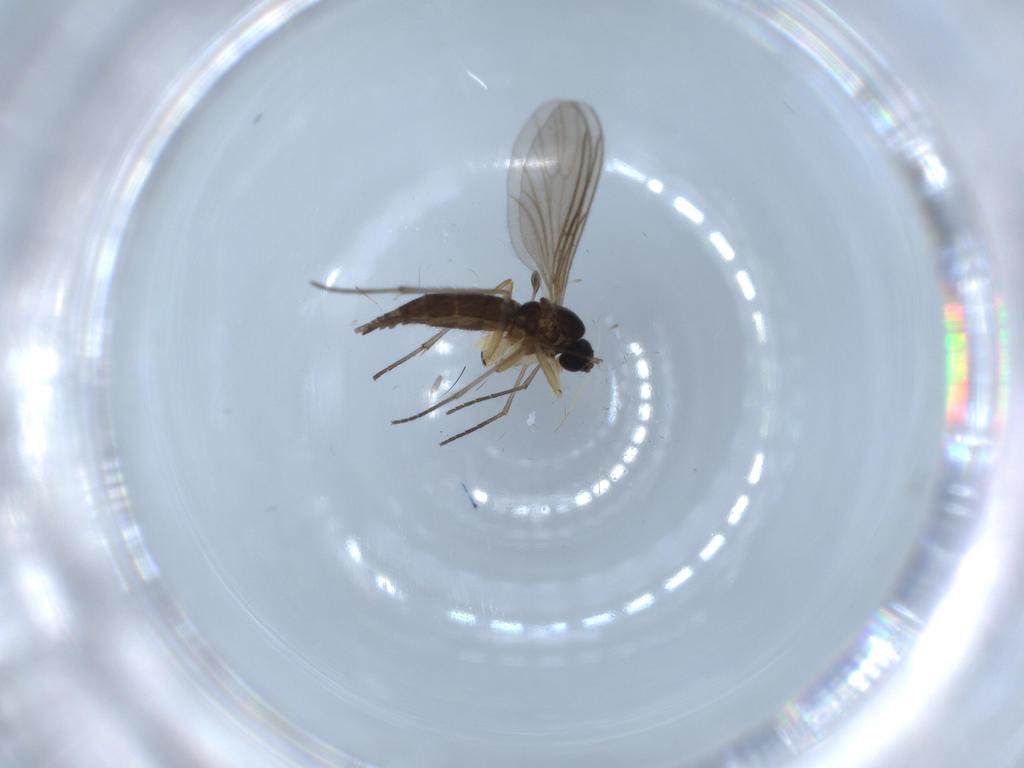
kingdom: Animalia
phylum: Arthropoda
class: Insecta
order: Diptera
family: Sciaridae
